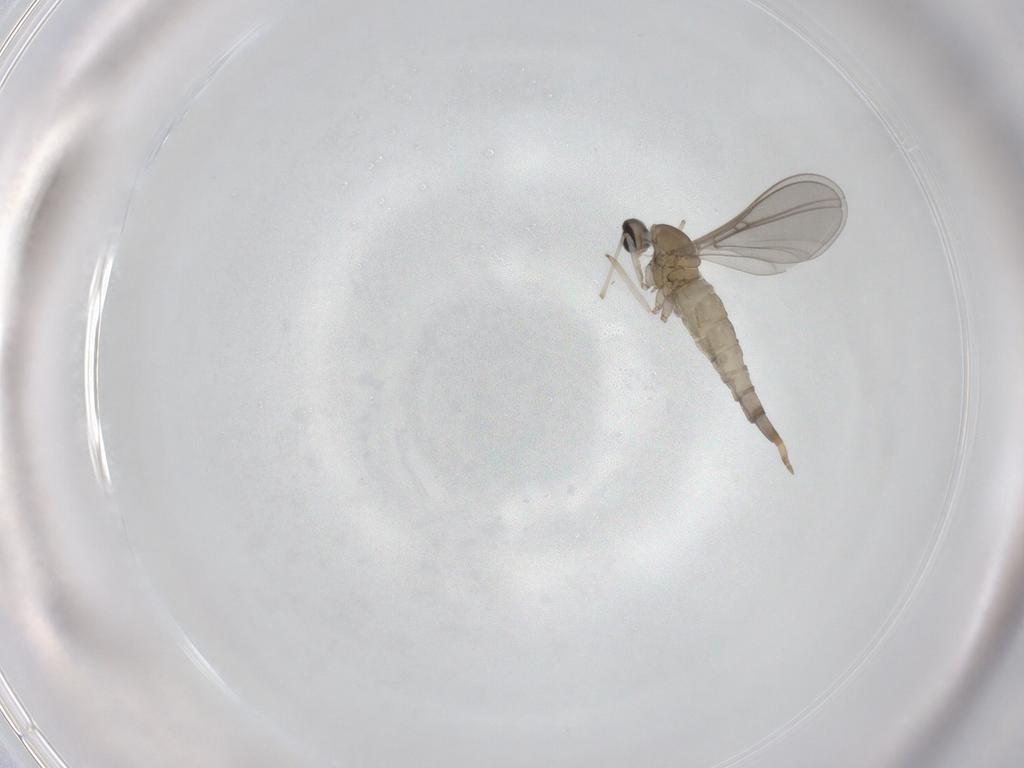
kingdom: Animalia
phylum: Arthropoda
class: Insecta
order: Diptera
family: Cecidomyiidae
